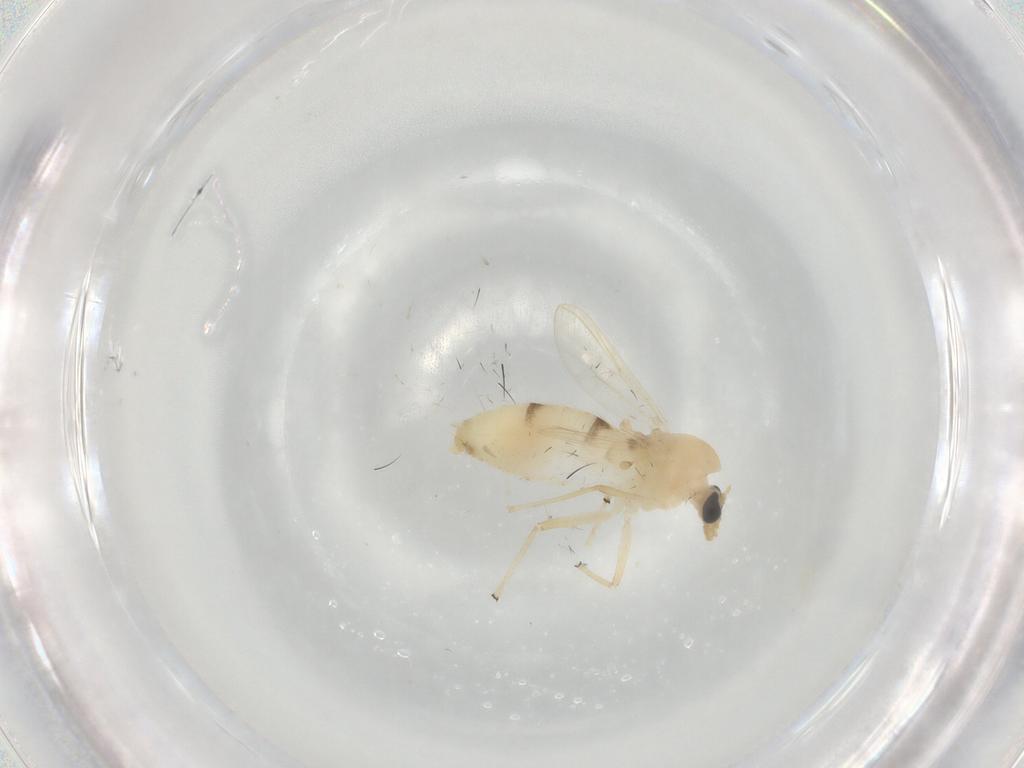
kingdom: Animalia
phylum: Arthropoda
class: Insecta
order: Diptera
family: Chironomidae
